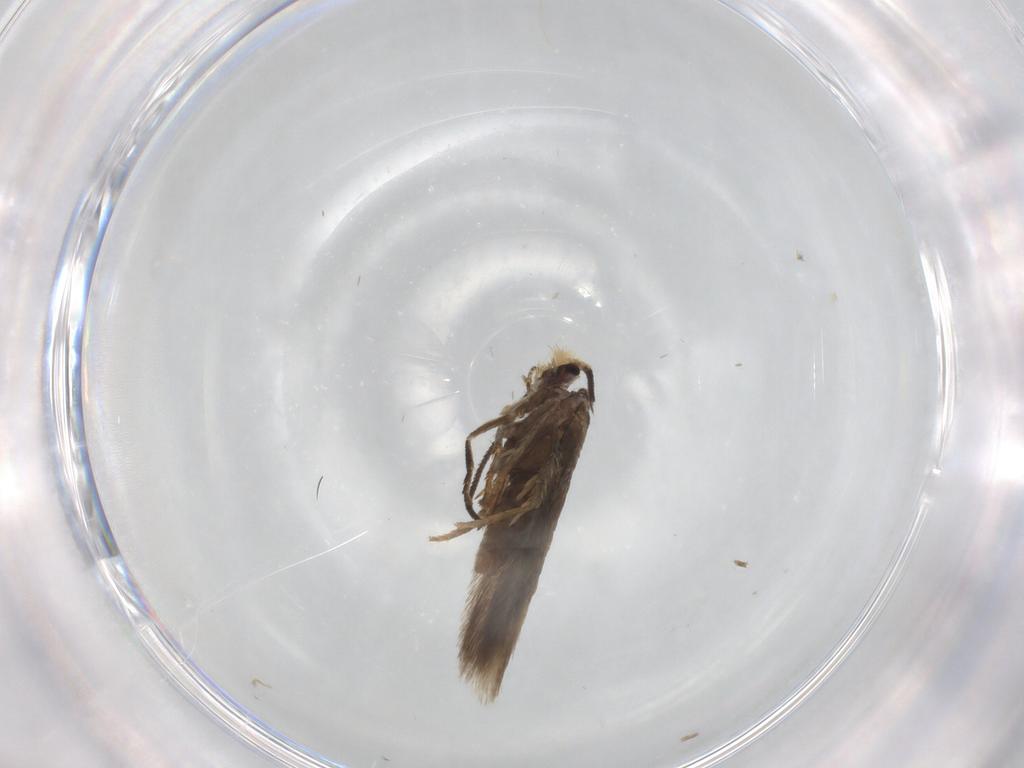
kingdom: Animalia
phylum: Arthropoda
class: Insecta
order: Lepidoptera
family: Nepticulidae
